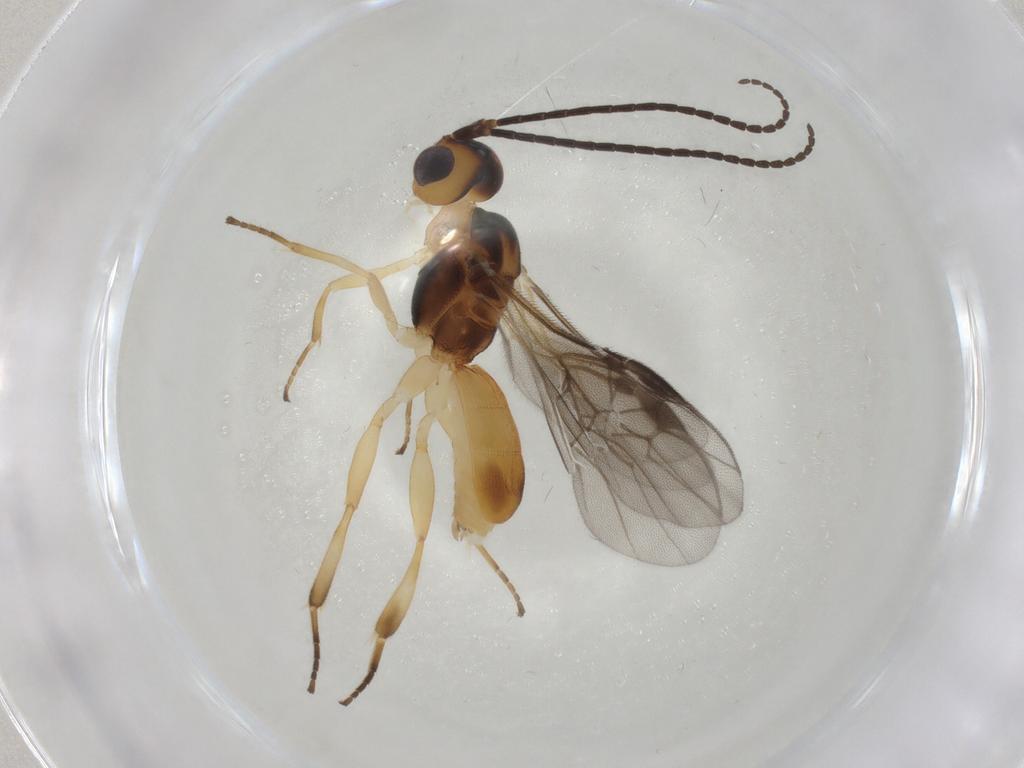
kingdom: Animalia
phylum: Arthropoda
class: Insecta
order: Hymenoptera
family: Braconidae
